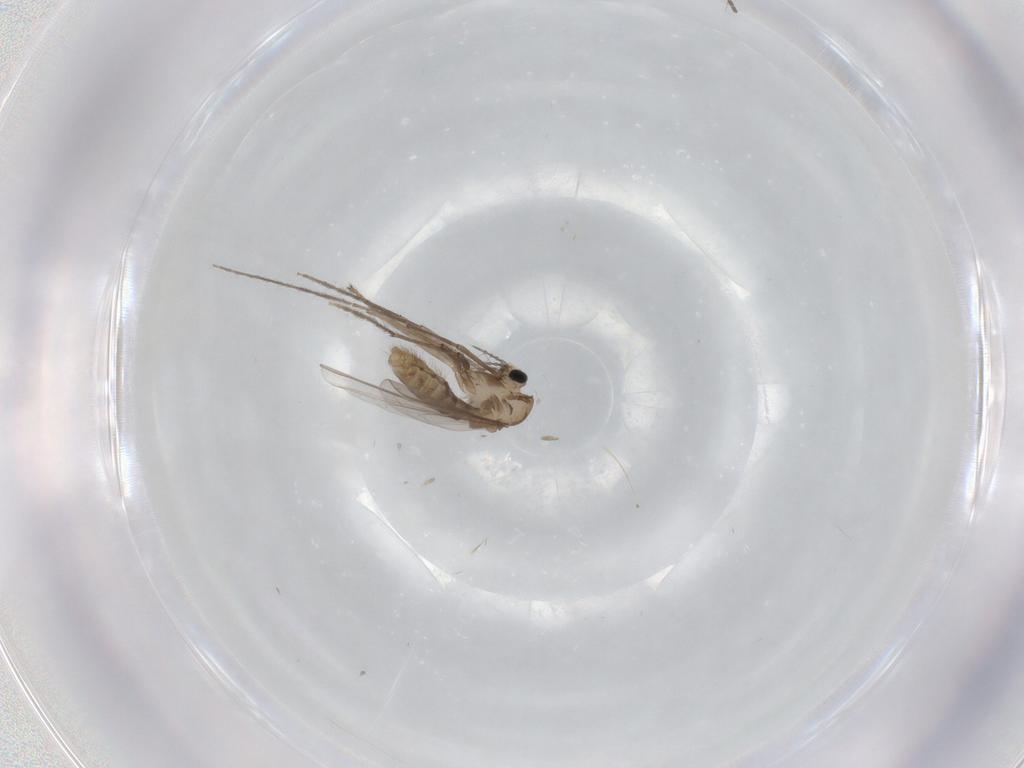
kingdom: Animalia
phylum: Arthropoda
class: Insecta
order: Diptera
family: Chironomidae
